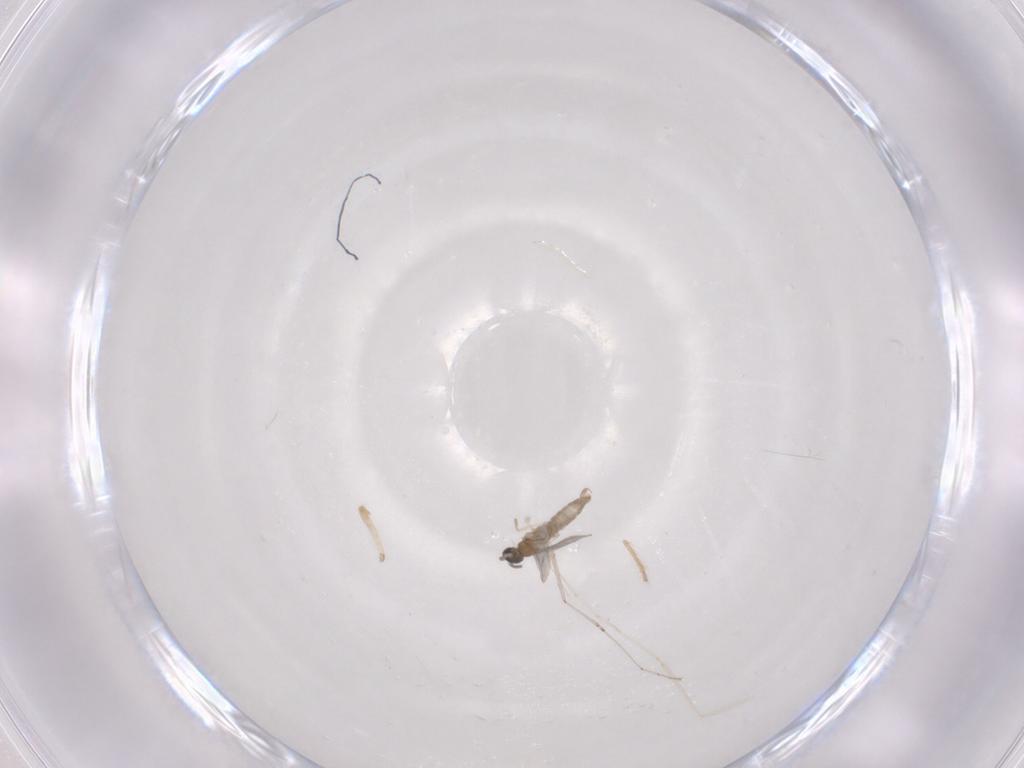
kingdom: Animalia
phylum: Arthropoda
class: Insecta
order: Diptera
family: Cecidomyiidae
